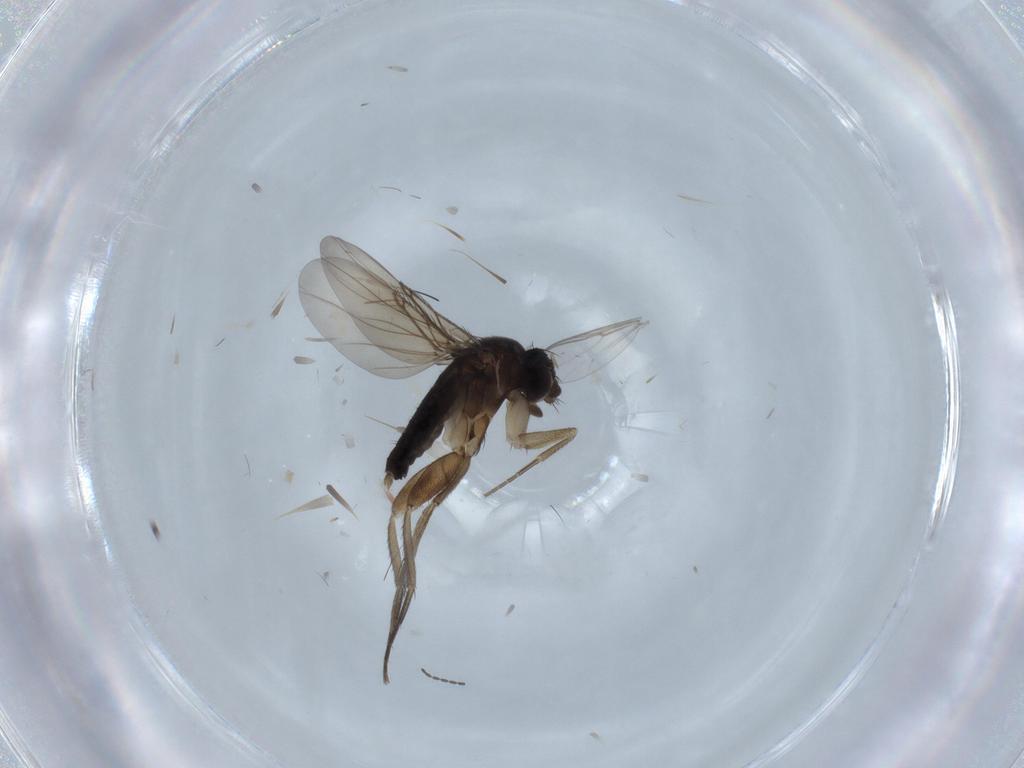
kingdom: Animalia
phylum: Arthropoda
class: Insecta
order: Diptera
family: Phoridae
